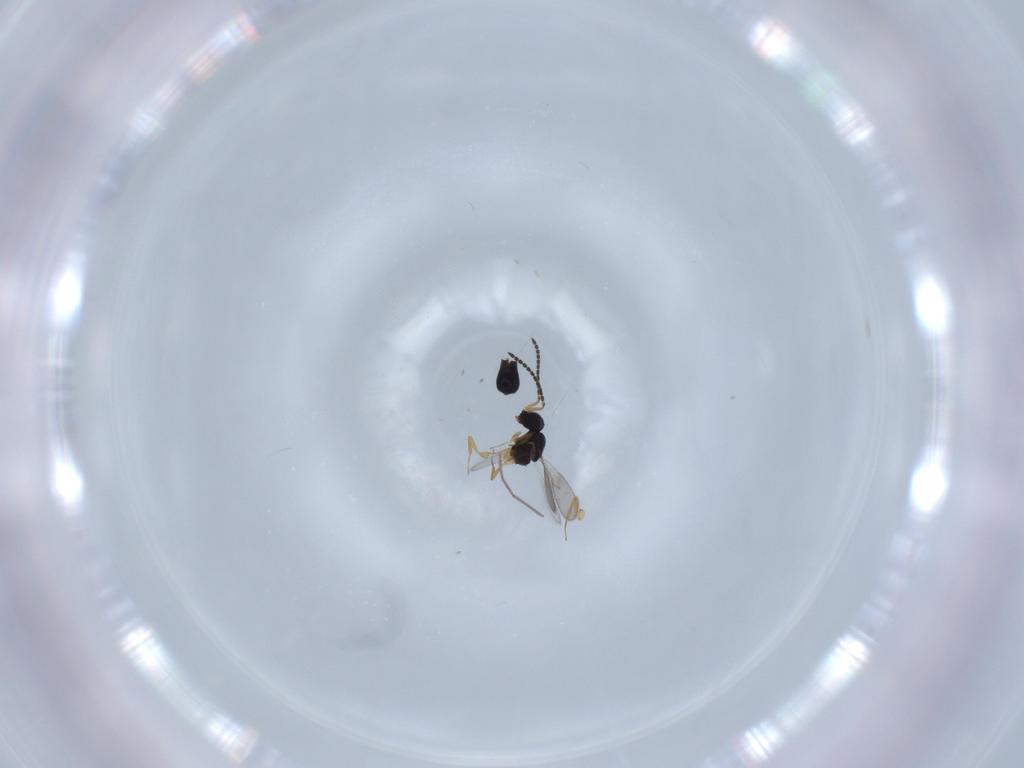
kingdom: Animalia
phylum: Arthropoda
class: Insecta
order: Hymenoptera
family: Scelionidae
